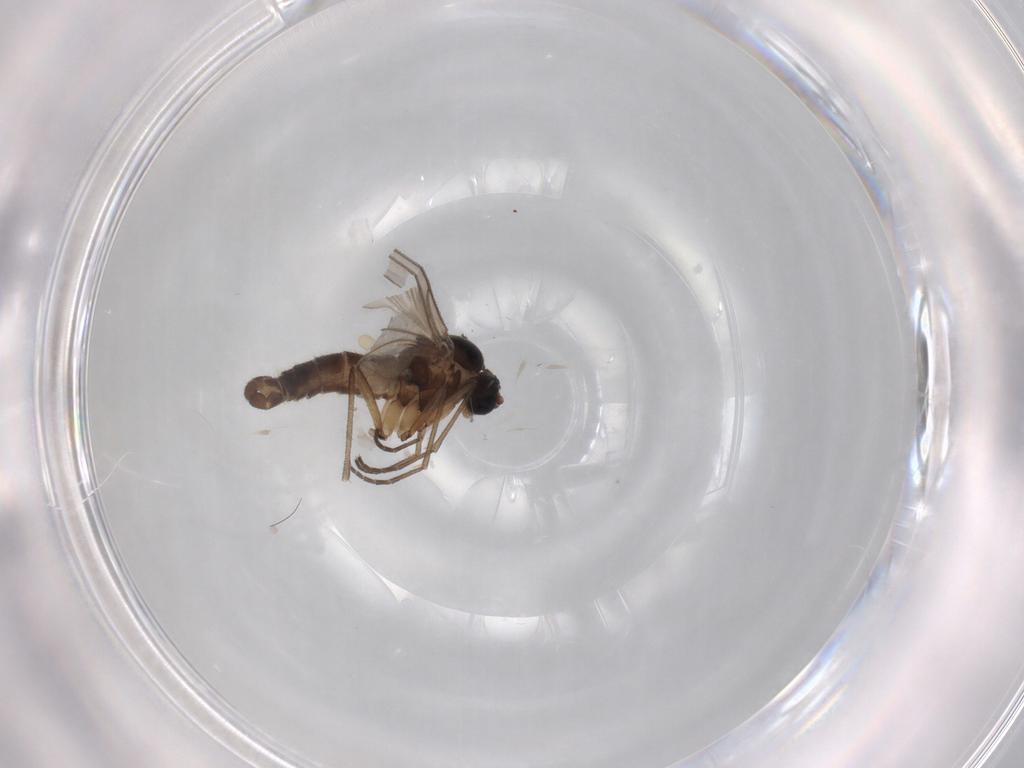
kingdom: Animalia
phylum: Arthropoda
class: Insecta
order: Diptera
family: Sciaridae
